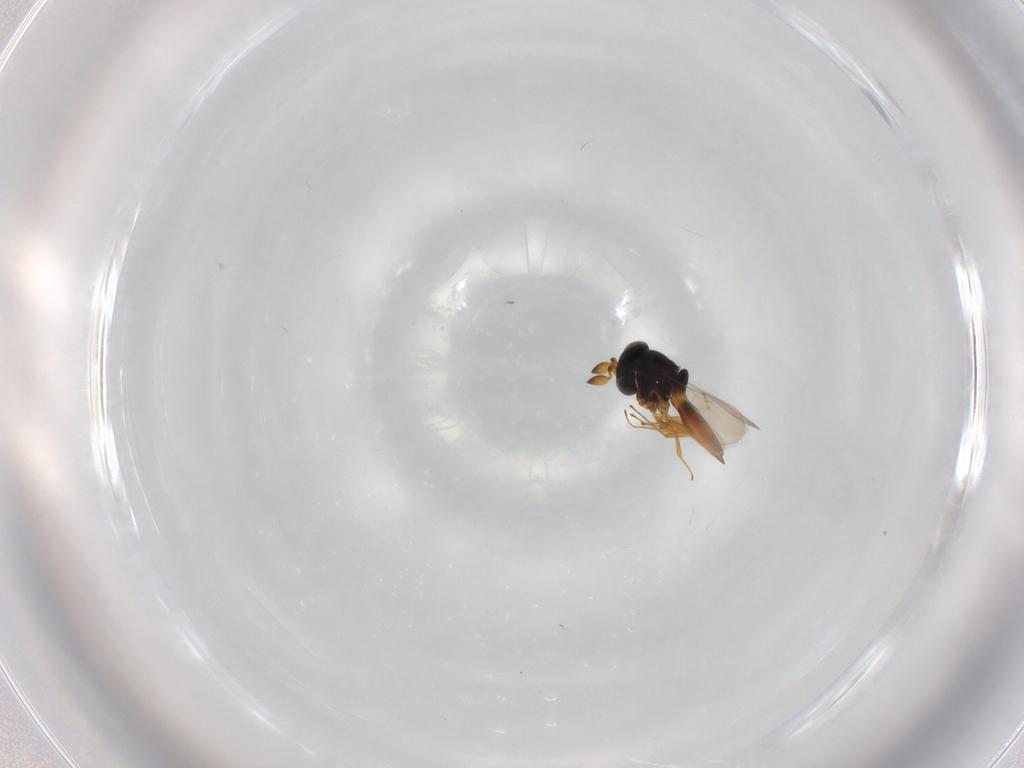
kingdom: Animalia
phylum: Arthropoda
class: Insecta
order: Hymenoptera
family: Scelionidae
